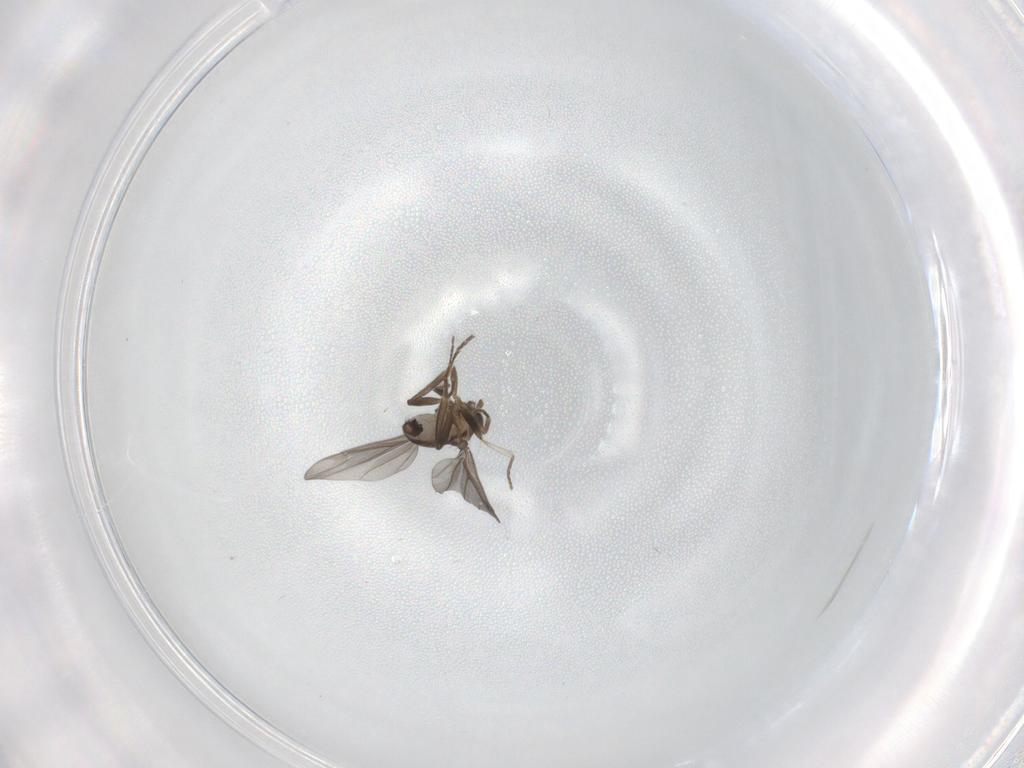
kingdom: Animalia
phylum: Arthropoda
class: Insecta
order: Diptera
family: Phoridae
